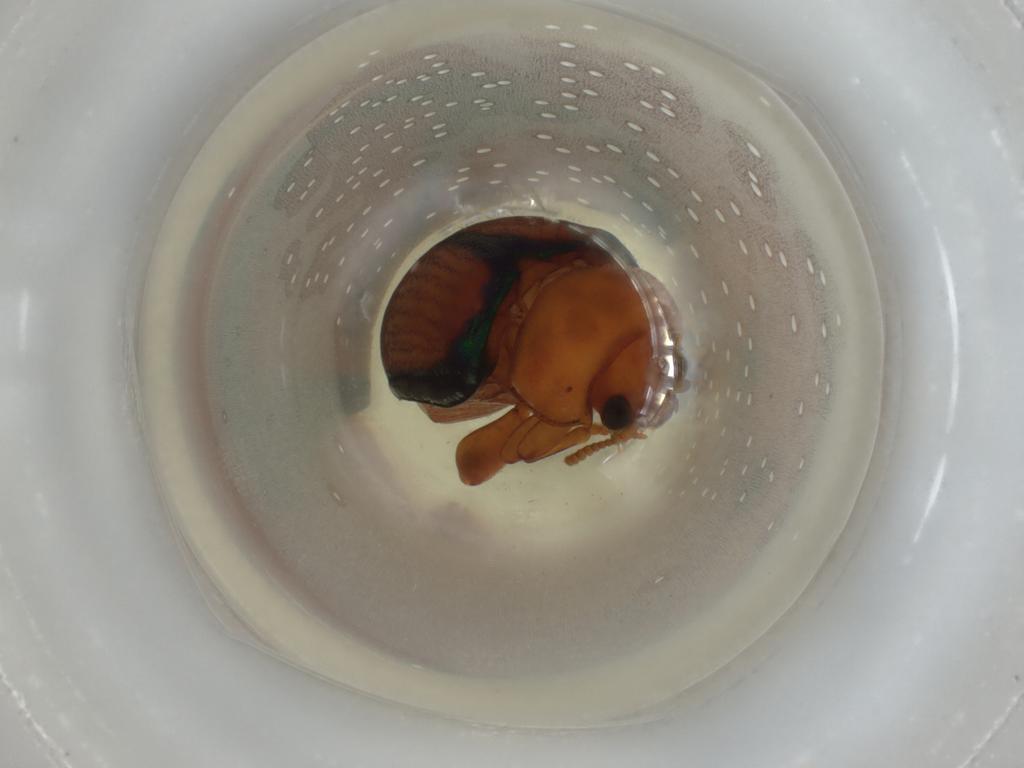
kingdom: Animalia
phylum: Arthropoda
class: Insecta
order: Coleoptera
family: Chrysomelidae
